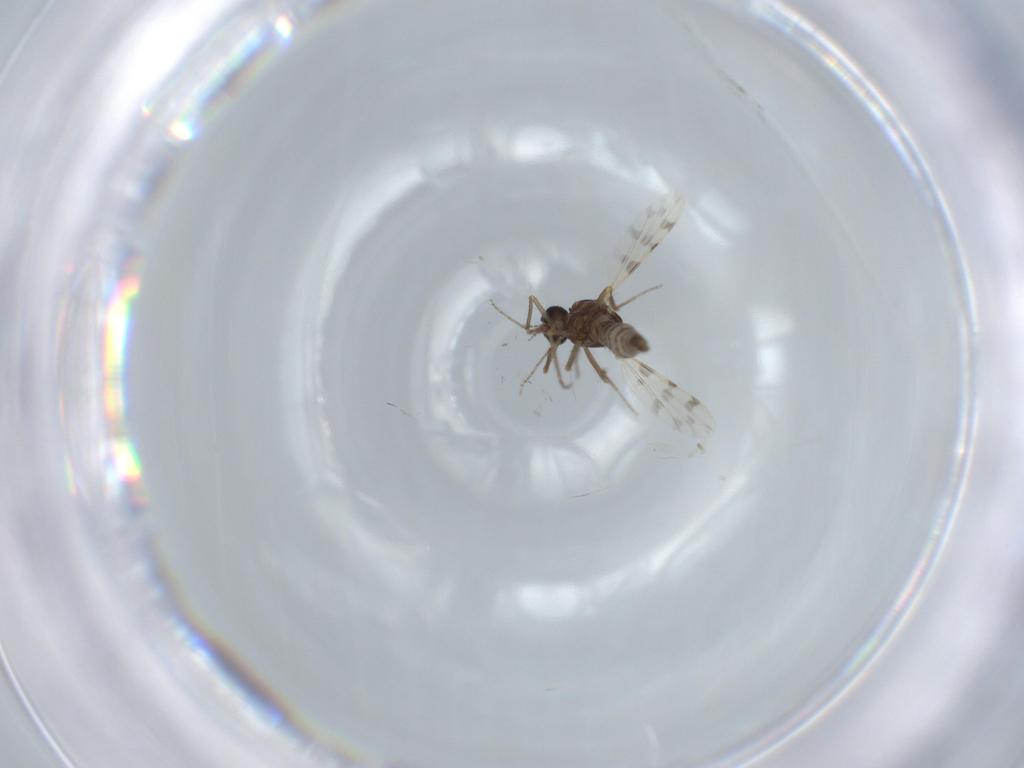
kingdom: Animalia
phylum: Arthropoda
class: Insecta
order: Diptera
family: Ceratopogonidae
